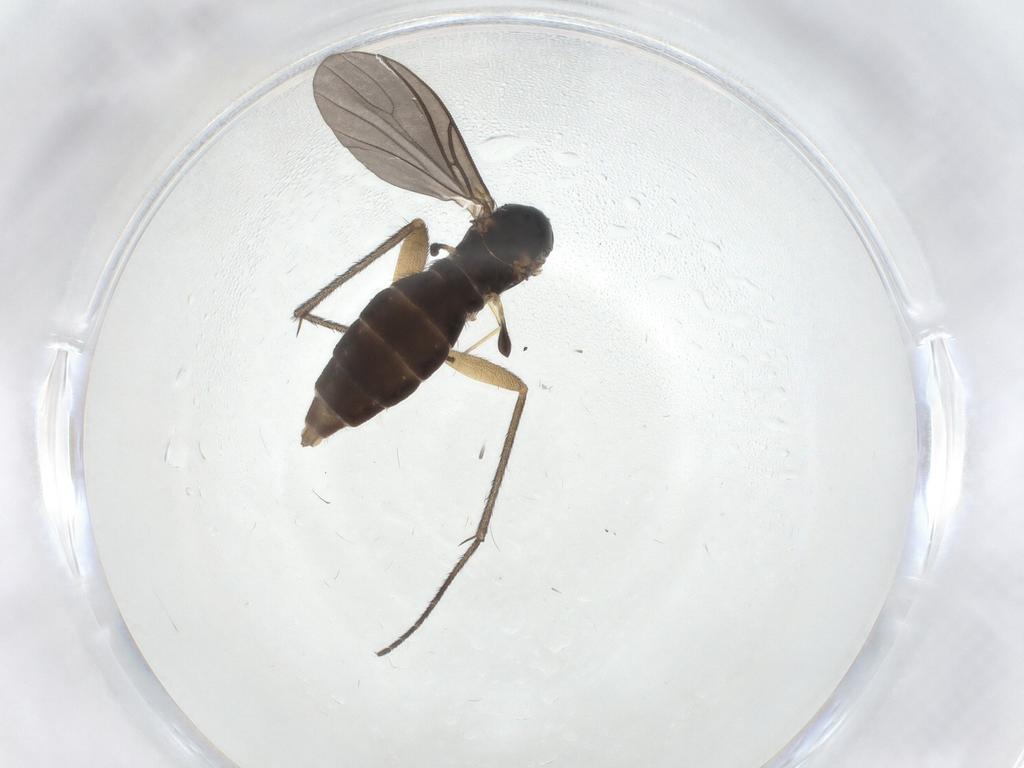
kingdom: Animalia
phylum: Arthropoda
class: Insecta
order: Diptera
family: Sciaridae
